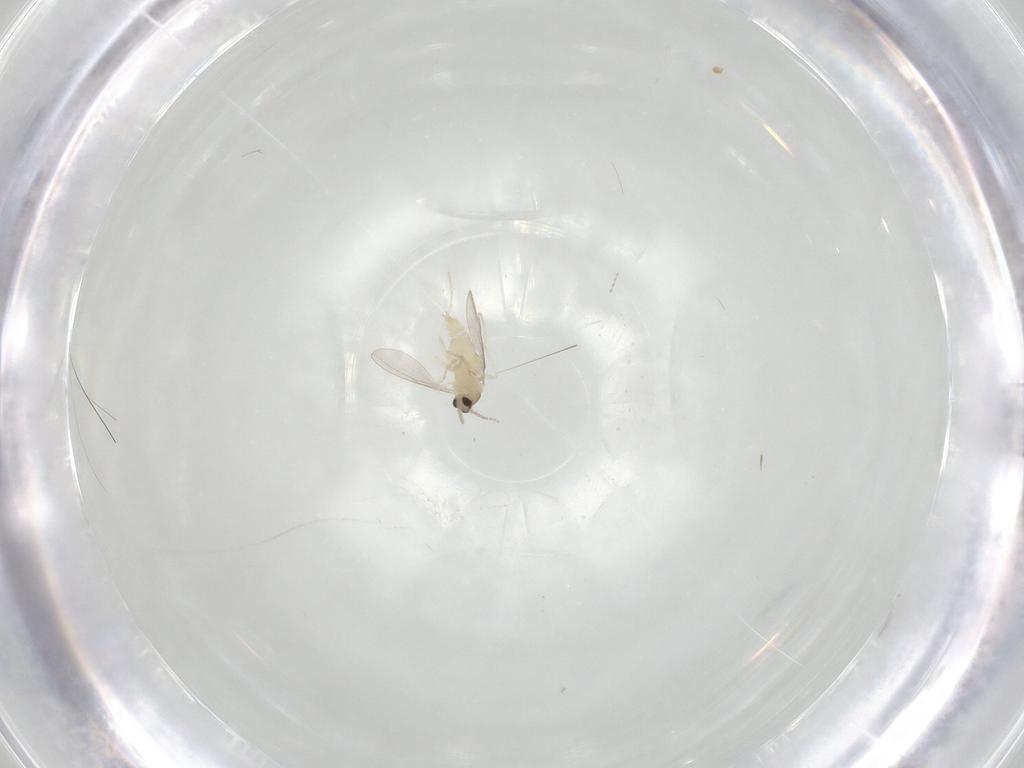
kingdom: Animalia
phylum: Arthropoda
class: Insecta
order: Diptera
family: Cecidomyiidae
